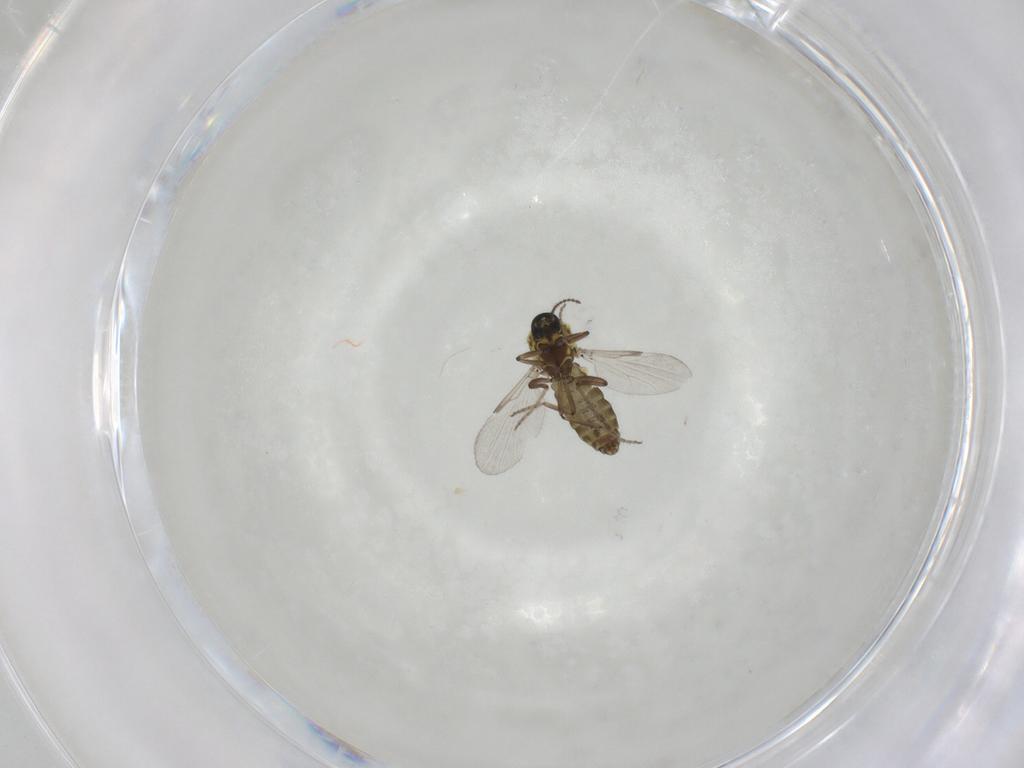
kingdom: Animalia
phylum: Arthropoda
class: Insecta
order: Diptera
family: Ceratopogonidae
